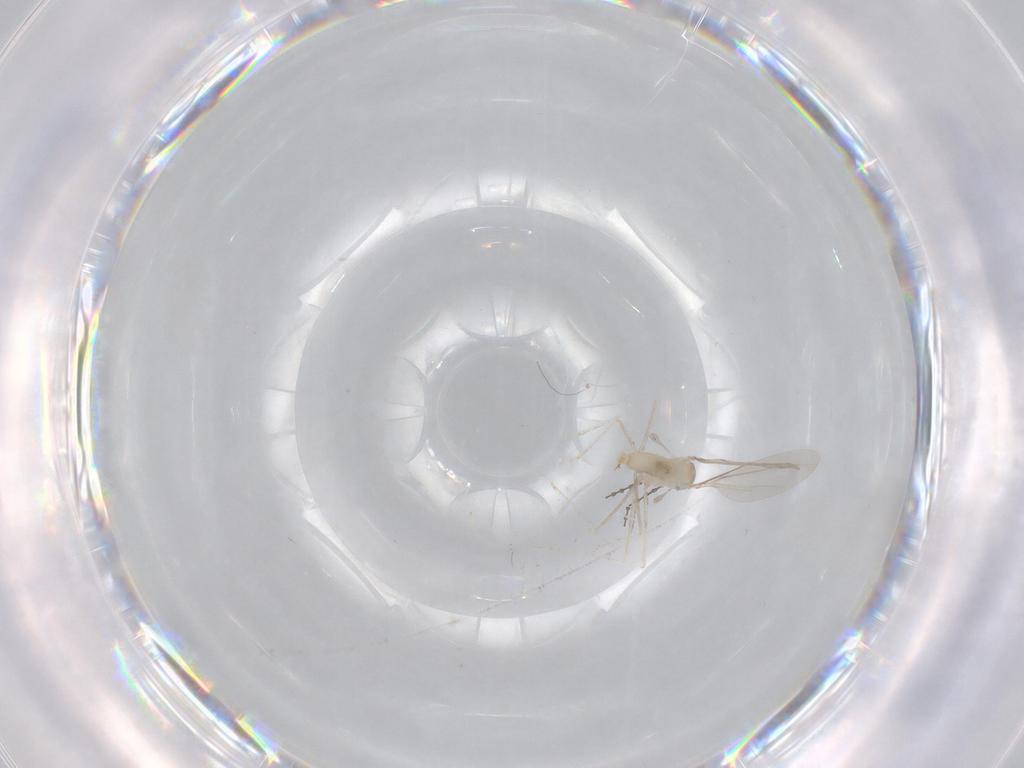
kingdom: Animalia
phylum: Arthropoda
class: Insecta
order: Diptera
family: Cecidomyiidae
